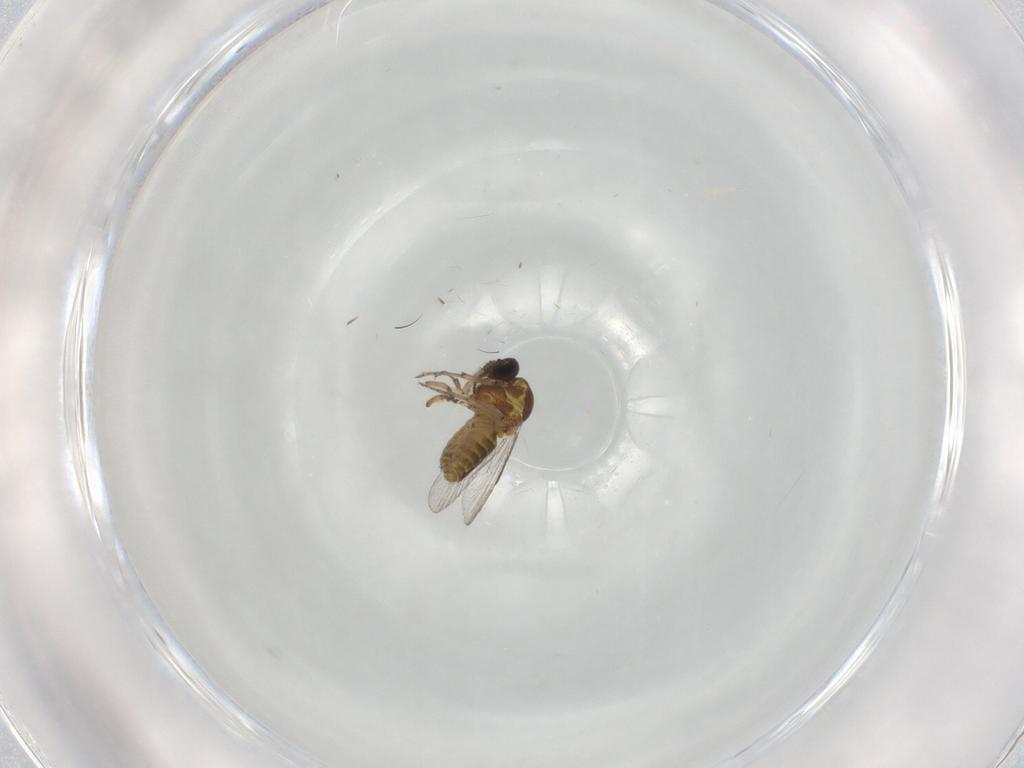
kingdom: Animalia
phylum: Arthropoda
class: Insecta
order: Diptera
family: Ceratopogonidae
